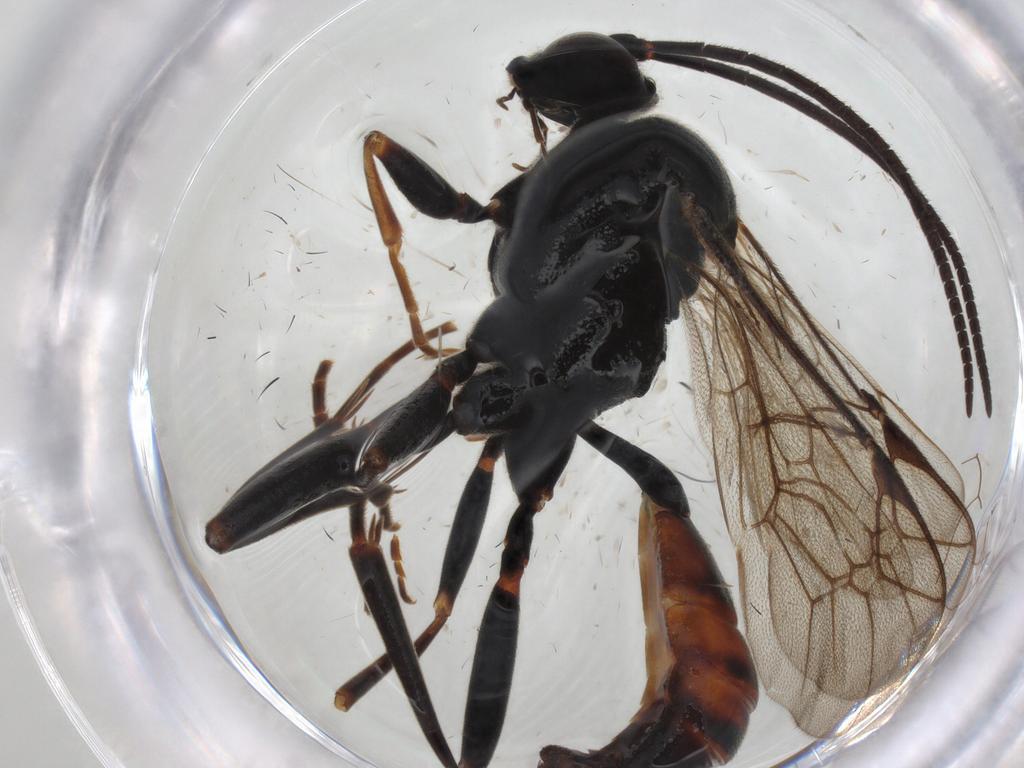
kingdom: Animalia
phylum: Arthropoda
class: Insecta
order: Hymenoptera
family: Ichneumonidae
